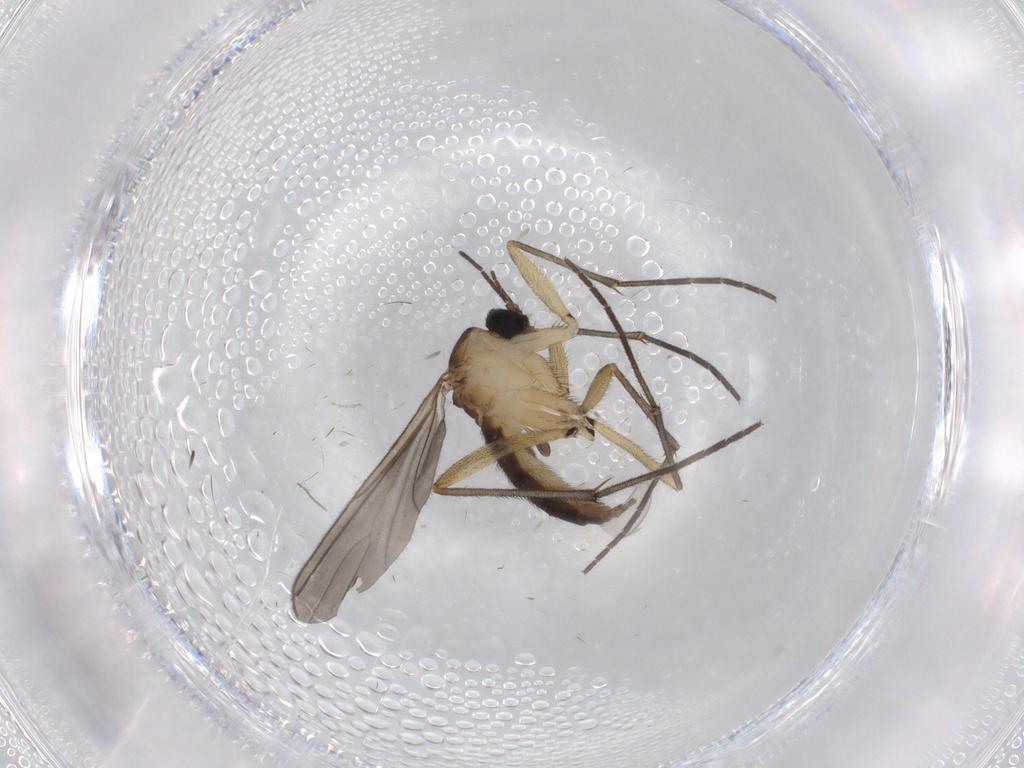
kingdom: Animalia
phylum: Arthropoda
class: Insecta
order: Diptera
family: Sciaridae
